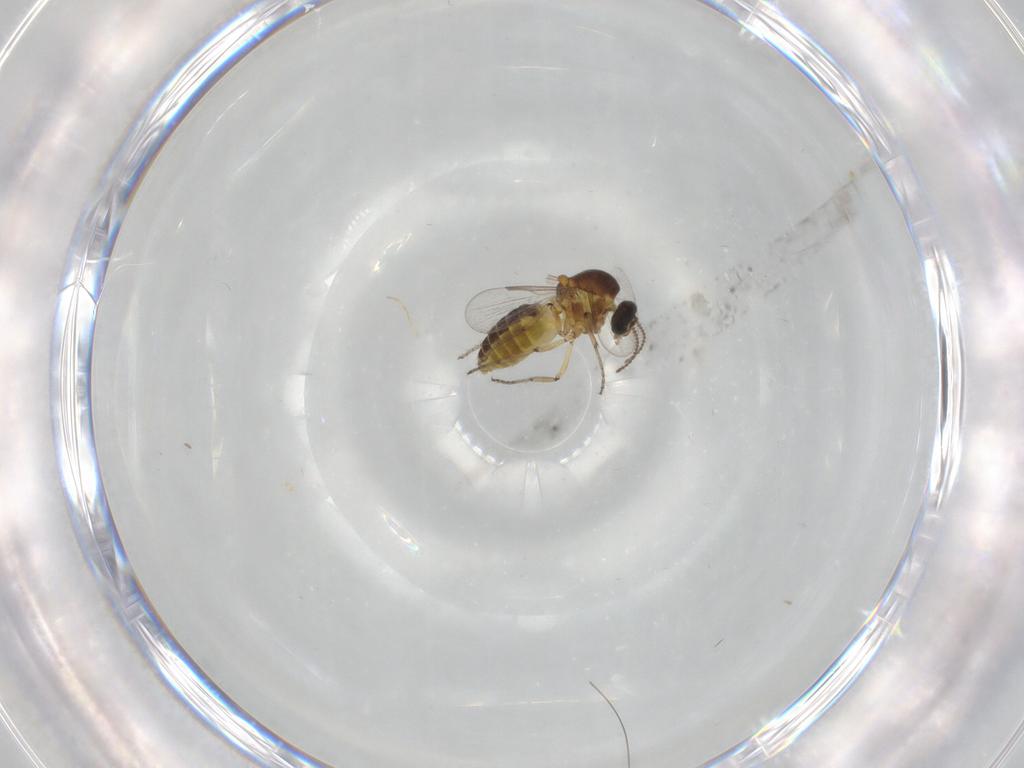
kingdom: Animalia
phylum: Arthropoda
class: Insecta
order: Diptera
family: Ceratopogonidae
